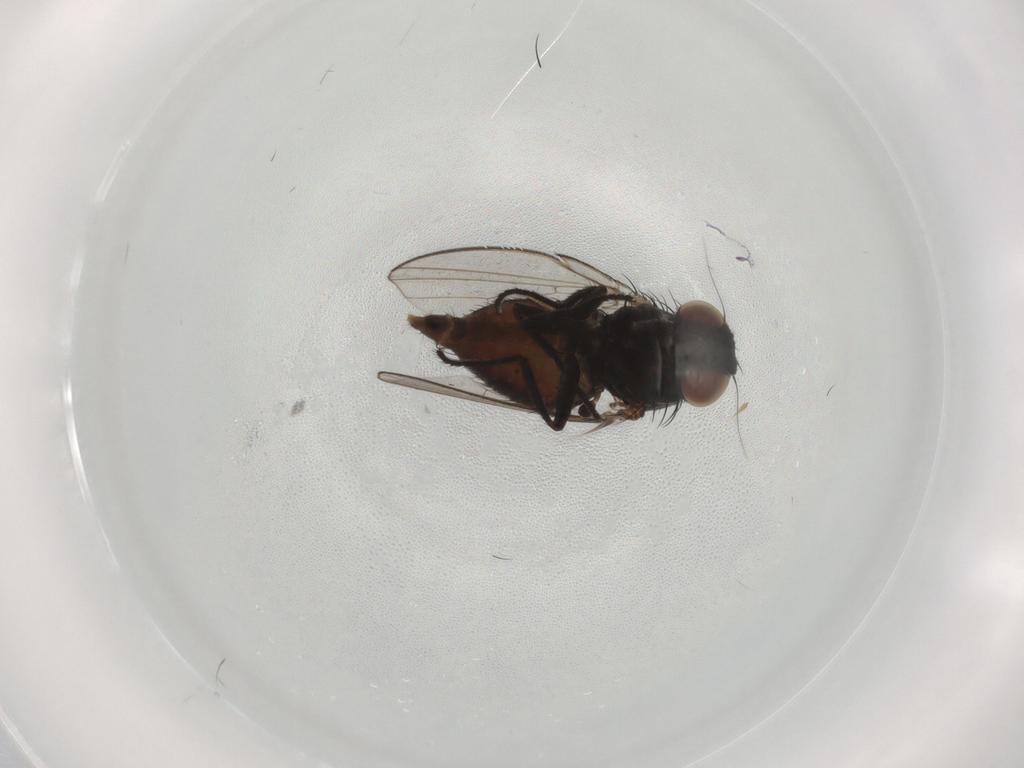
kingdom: Animalia
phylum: Arthropoda
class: Insecta
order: Diptera
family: Milichiidae
